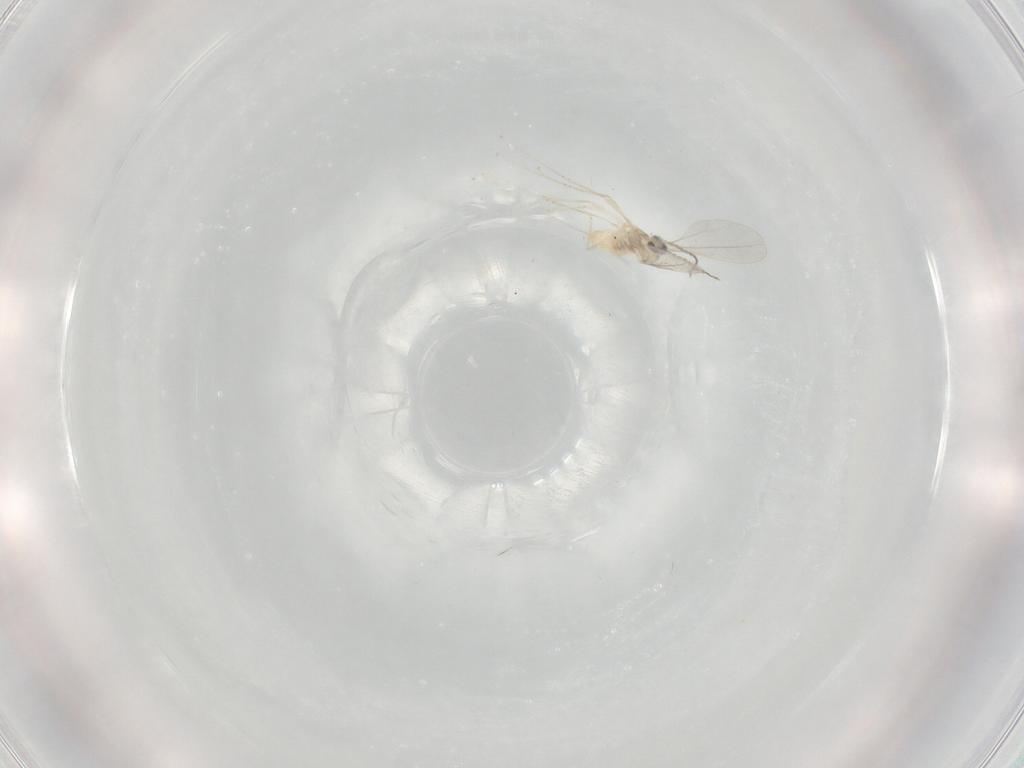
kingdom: Animalia
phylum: Arthropoda
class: Insecta
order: Diptera
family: Cecidomyiidae
